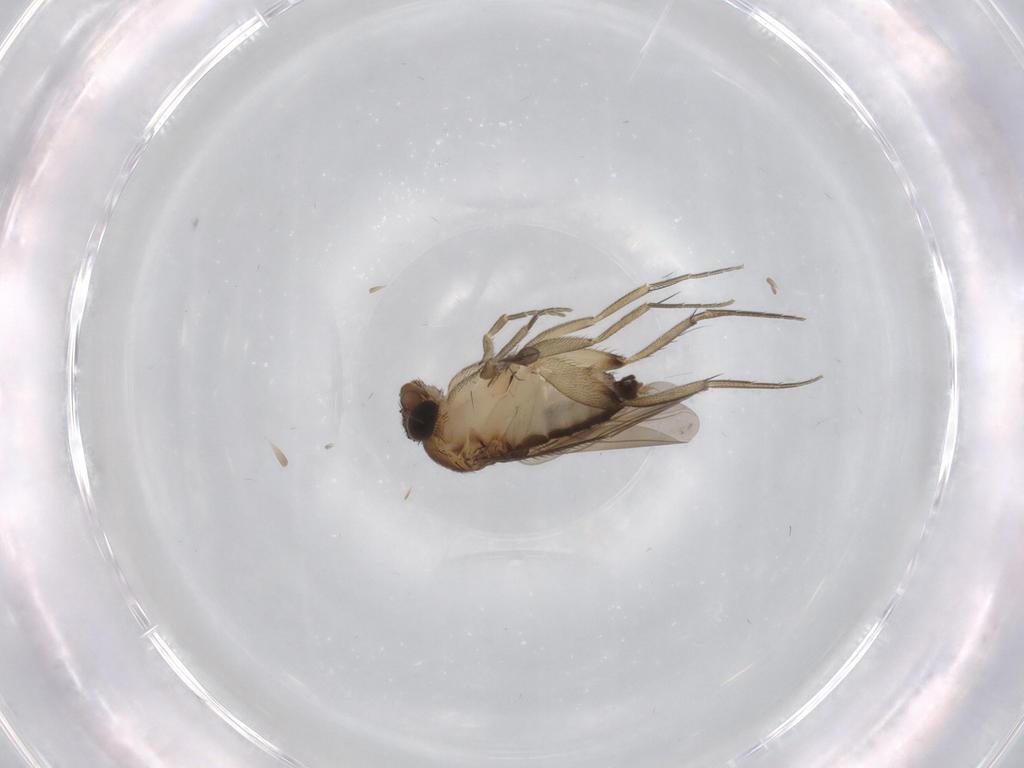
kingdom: Animalia
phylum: Arthropoda
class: Insecta
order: Diptera
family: Phoridae
